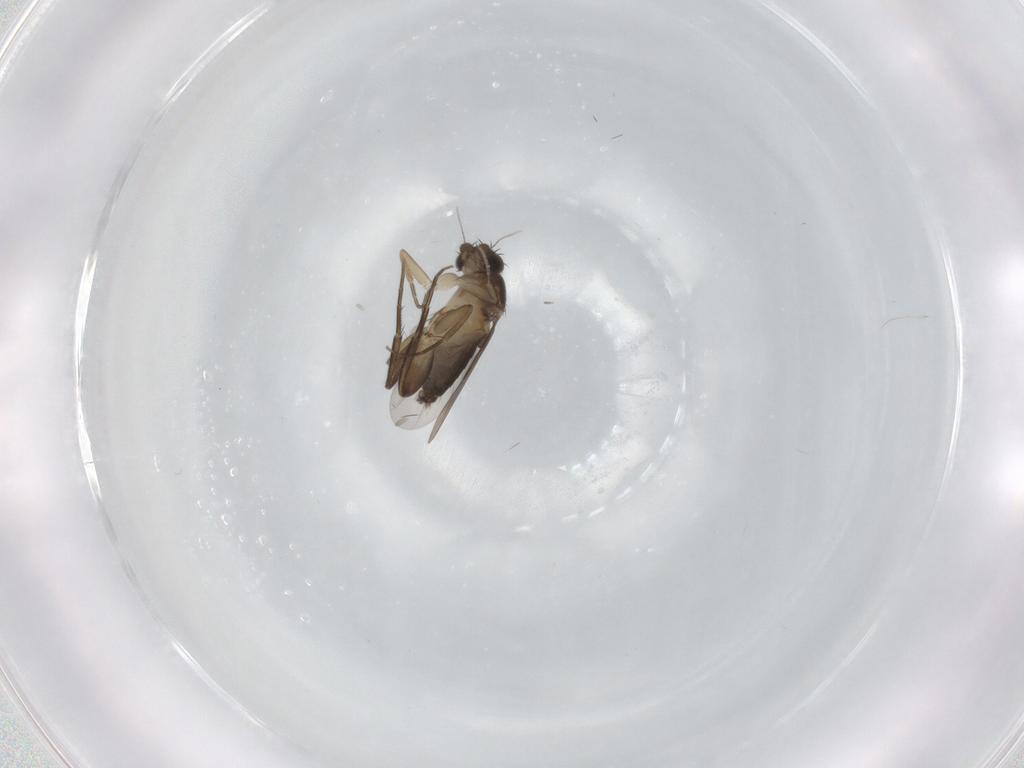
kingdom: Animalia
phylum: Arthropoda
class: Insecta
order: Diptera
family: Phoridae
